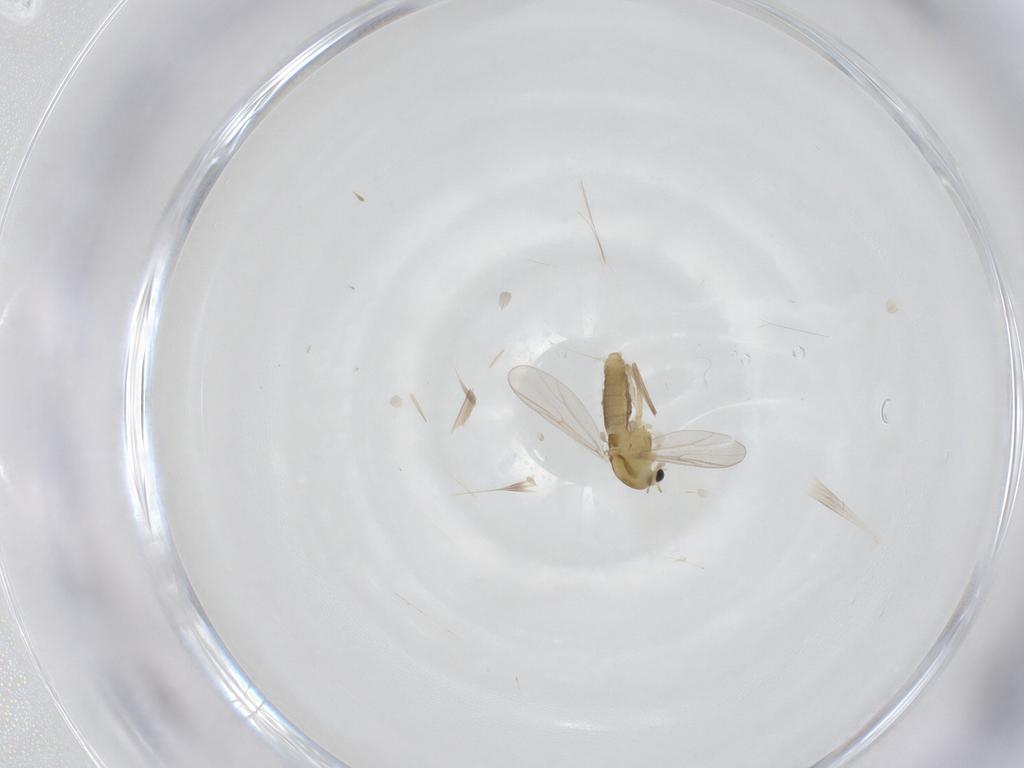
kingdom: Animalia
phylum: Arthropoda
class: Insecta
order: Diptera
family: Chironomidae
